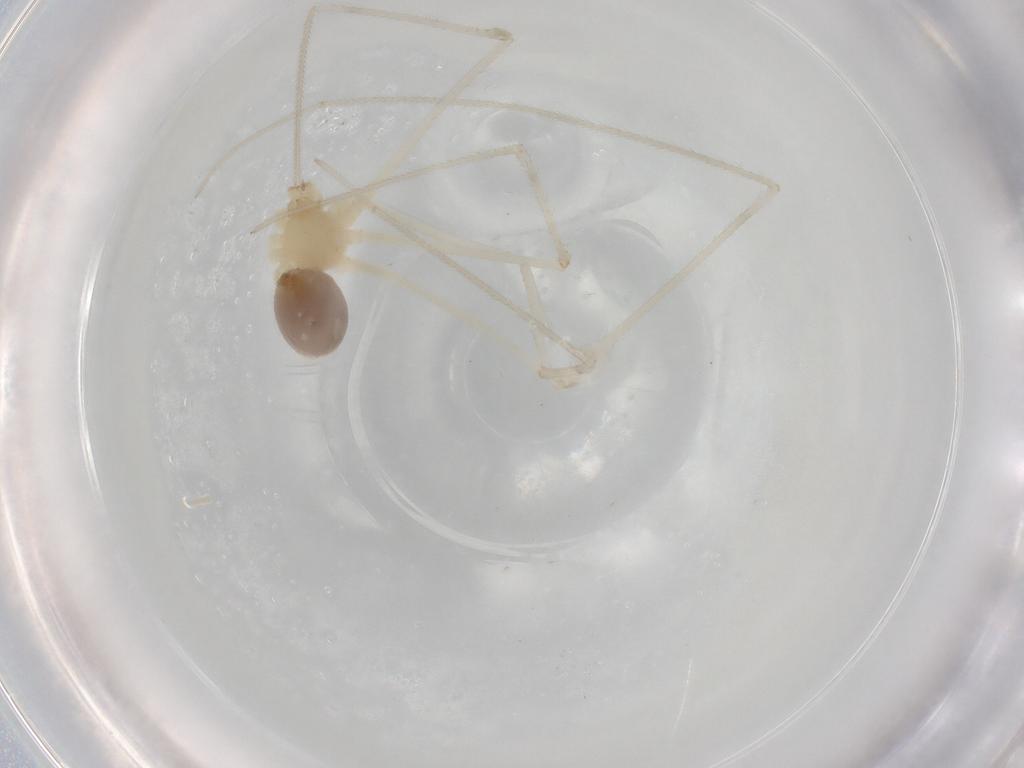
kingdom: Animalia
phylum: Arthropoda
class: Arachnida
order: Araneae
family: Pholcidae
